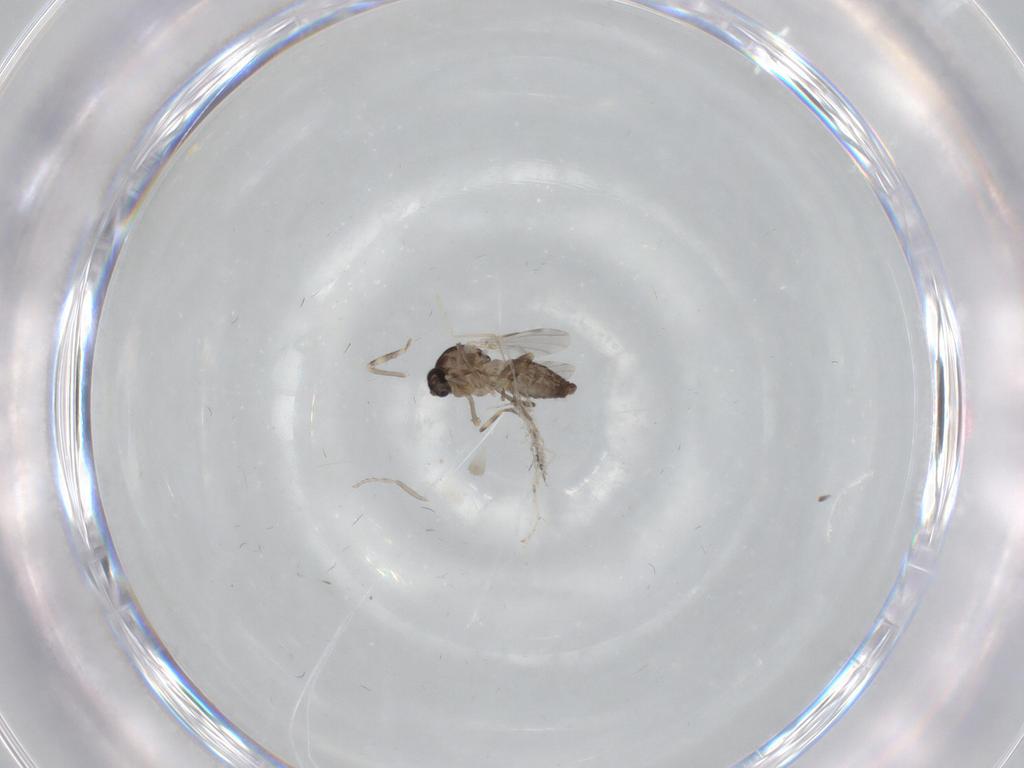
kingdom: Animalia
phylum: Arthropoda
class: Insecta
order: Diptera
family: Ceratopogonidae
